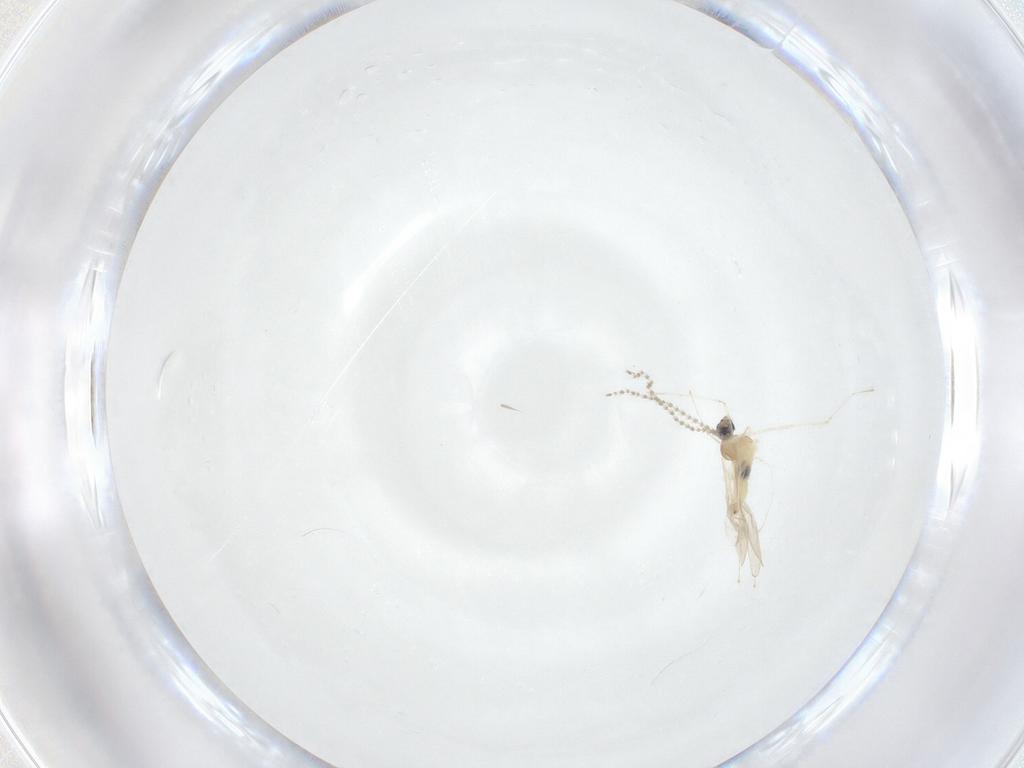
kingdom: Animalia
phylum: Arthropoda
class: Insecta
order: Diptera
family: Cecidomyiidae
